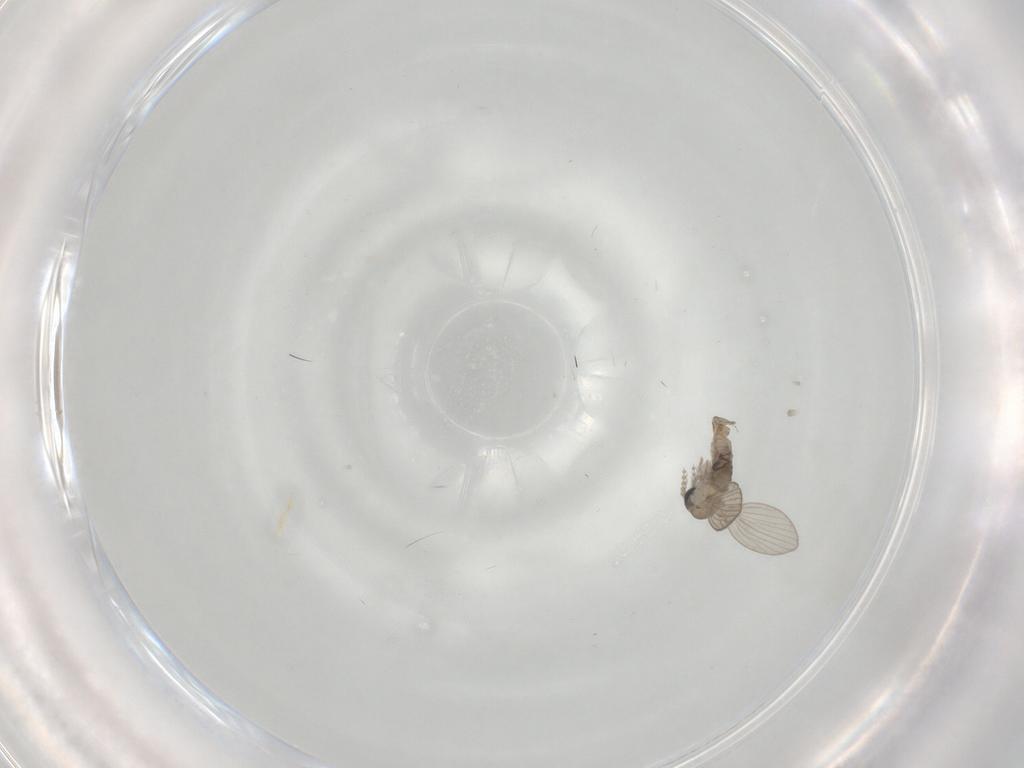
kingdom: Animalia
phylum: Arthropoda
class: Insecta
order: Diptera
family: Psychodidae
